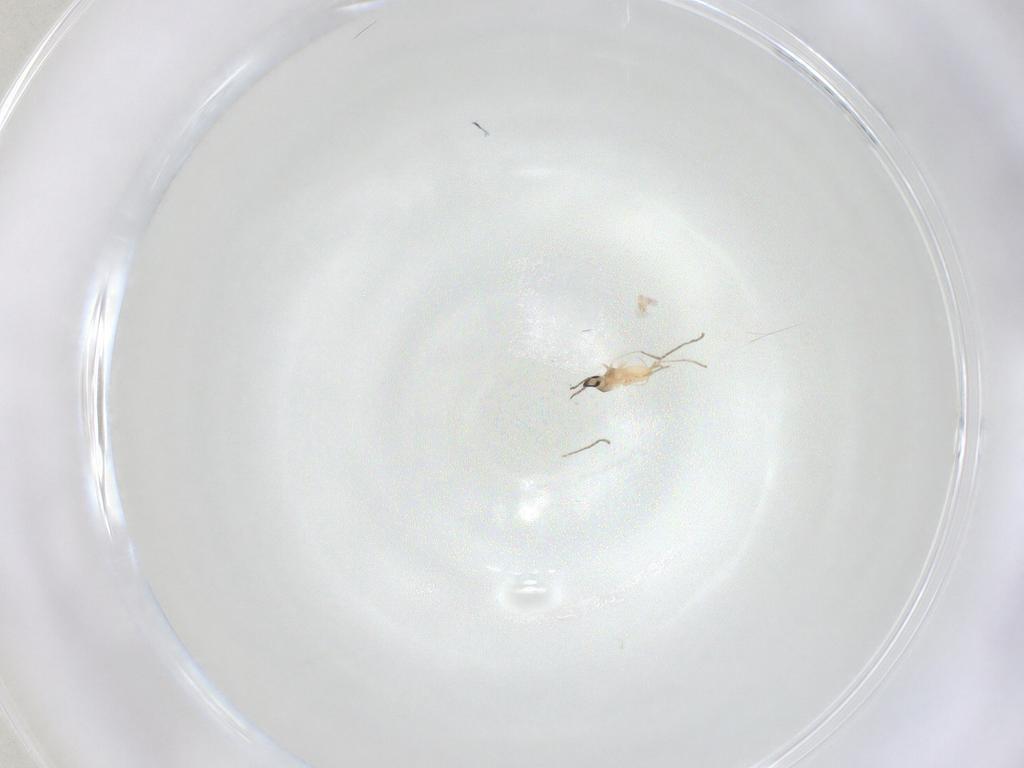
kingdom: Animalia
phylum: Arthropoda
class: Insecta
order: Diptera
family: Cecidomyiidae
